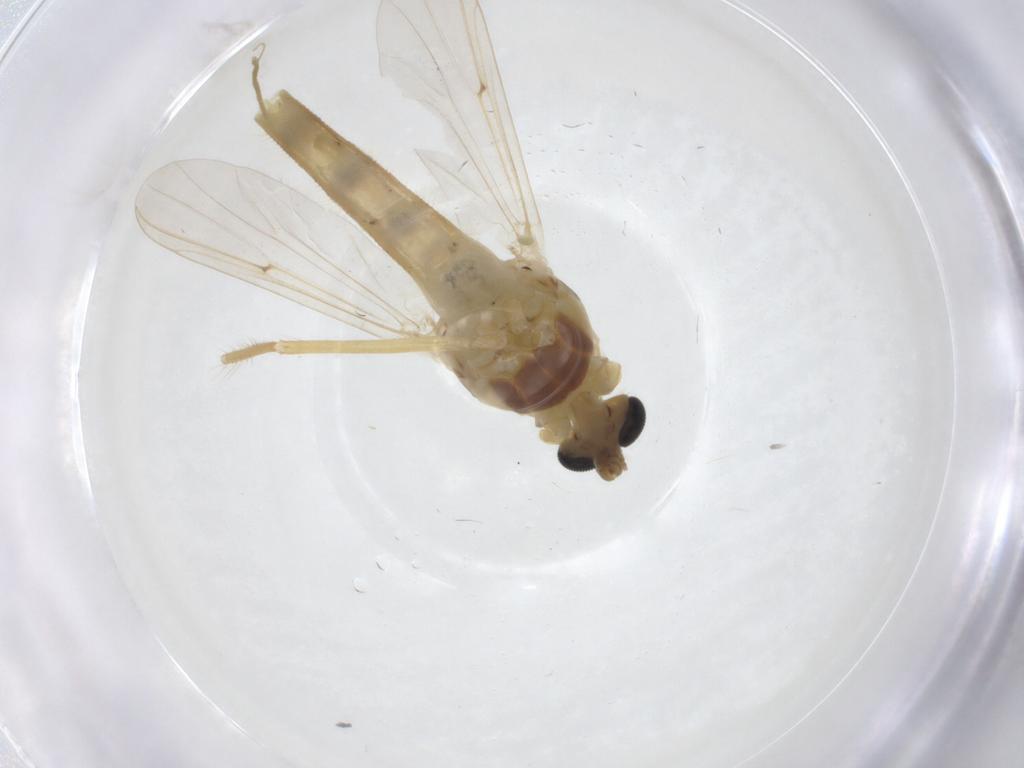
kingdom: Animalia
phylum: Arthropoda
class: Insecta
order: Diptera
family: Chironomidae
